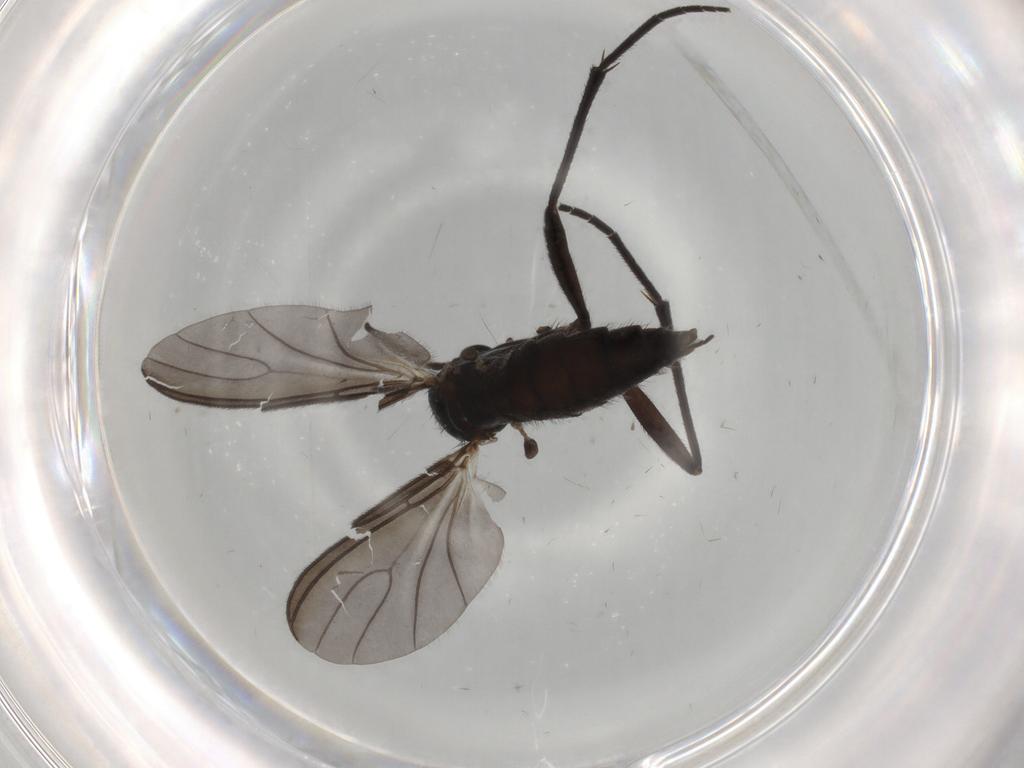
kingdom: Animalia
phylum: Arthropoda
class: Insecta
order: Diptera
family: Sciaridae
